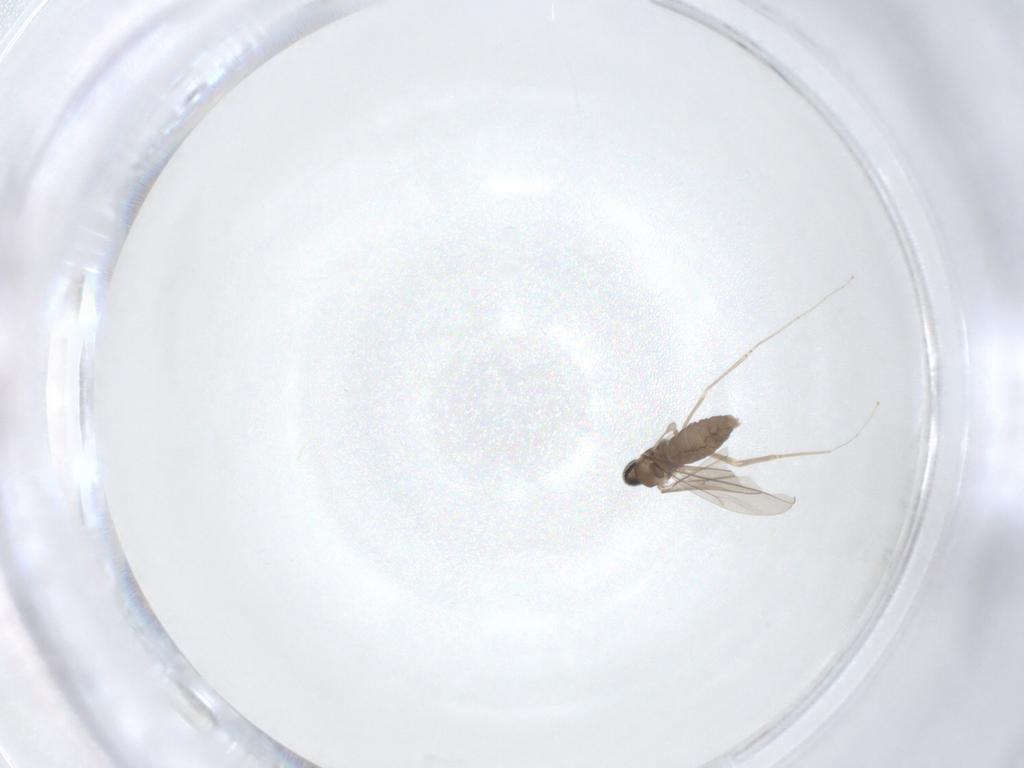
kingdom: Animalia
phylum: Arthropoda
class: Insecta
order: Diptera
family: Cecidomyiidae
